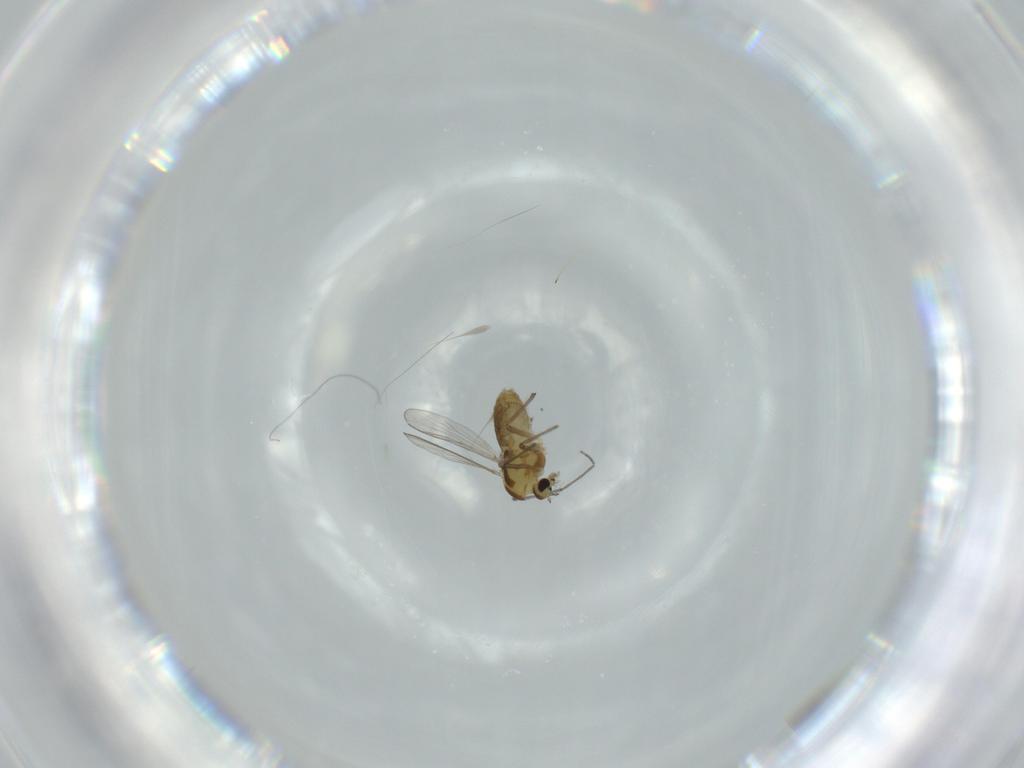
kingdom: Animalia
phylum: Arthropoda
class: Insecta
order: Diptera
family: Chironomidae
